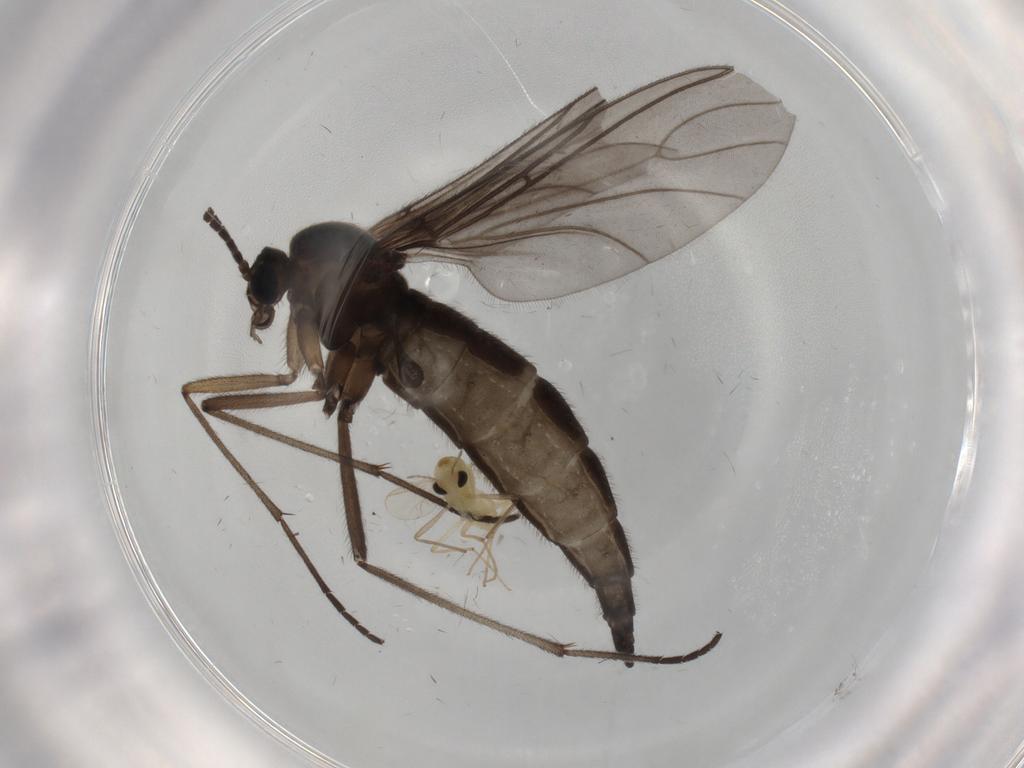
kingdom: Animalia
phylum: Arthropoda
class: Insecta
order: Diptera
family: Sciaridae
